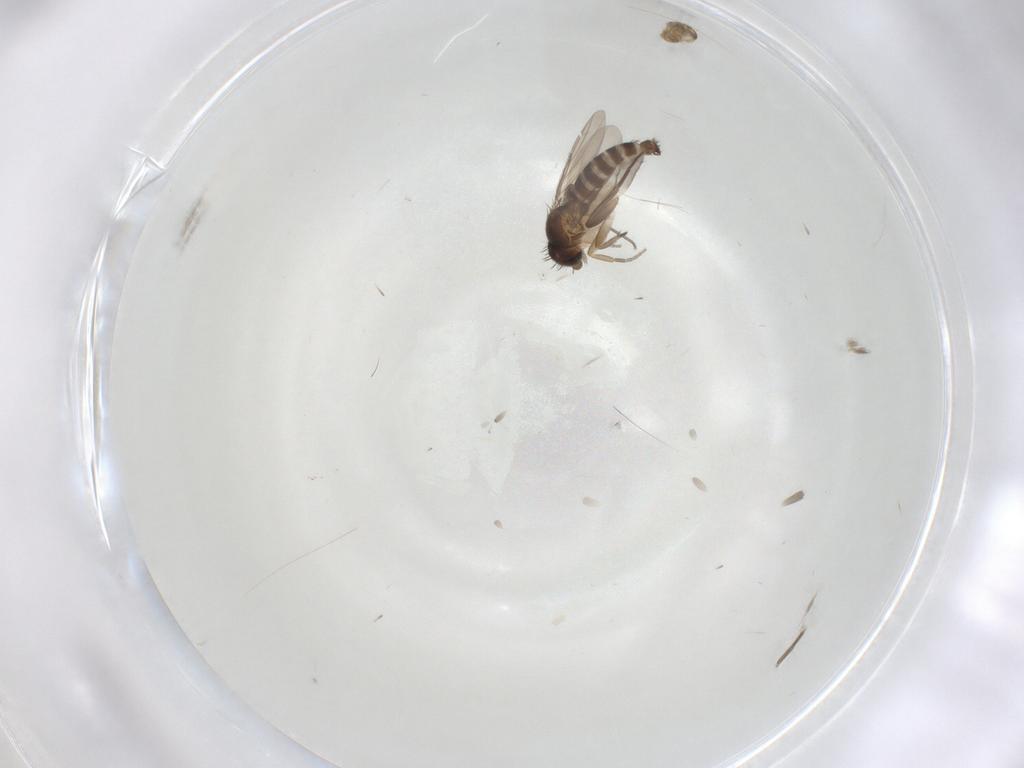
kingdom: Animalia
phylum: Arthropoda
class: Insecta
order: Diptera
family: Phoridae
